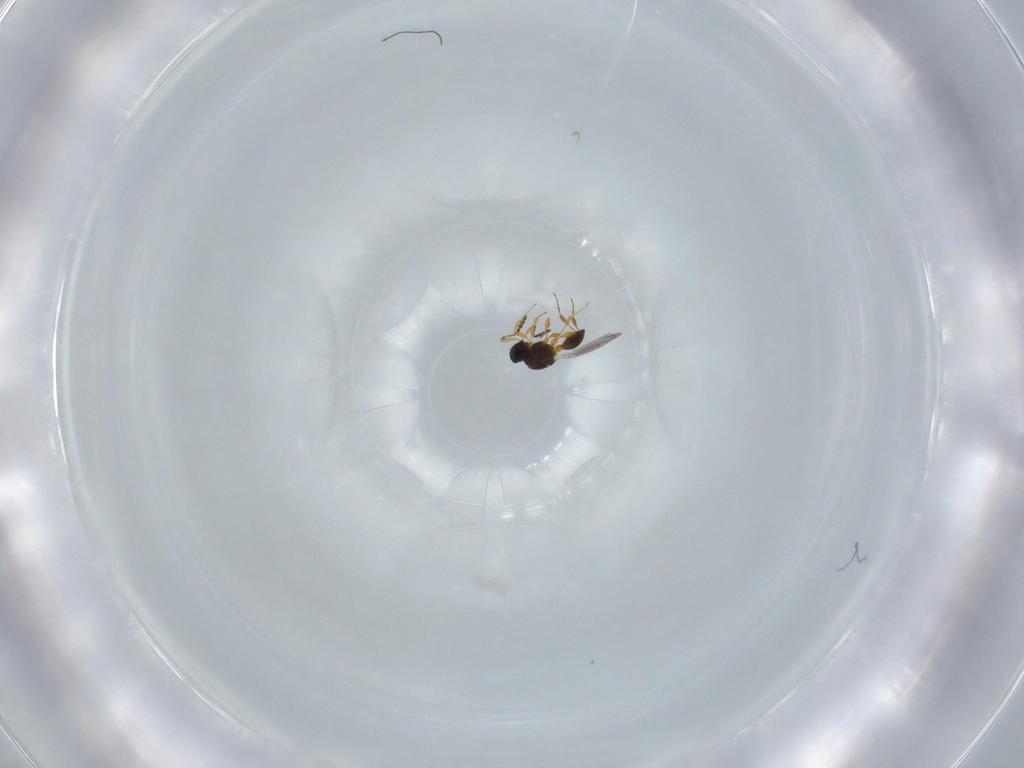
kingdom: Animalia
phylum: Arthropoda
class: Insecta
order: Hymenoptera
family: Platygastridae
